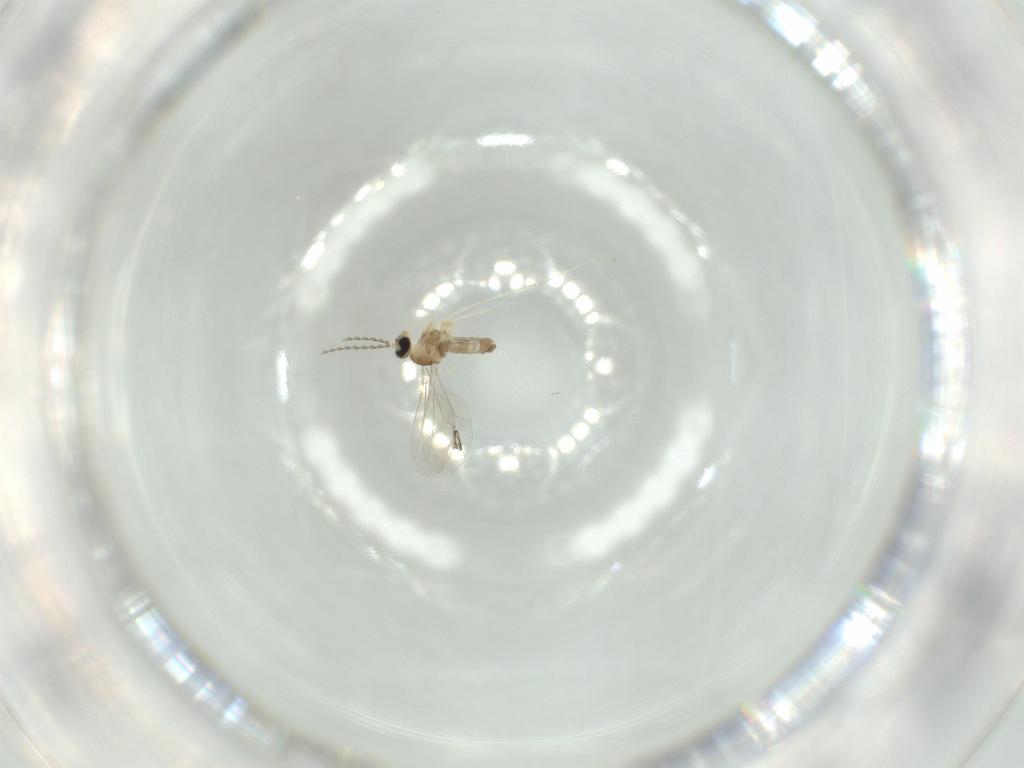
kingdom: Animalia
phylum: Arthropoda
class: Insecta
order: Diptera
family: Cecidomyiidae
